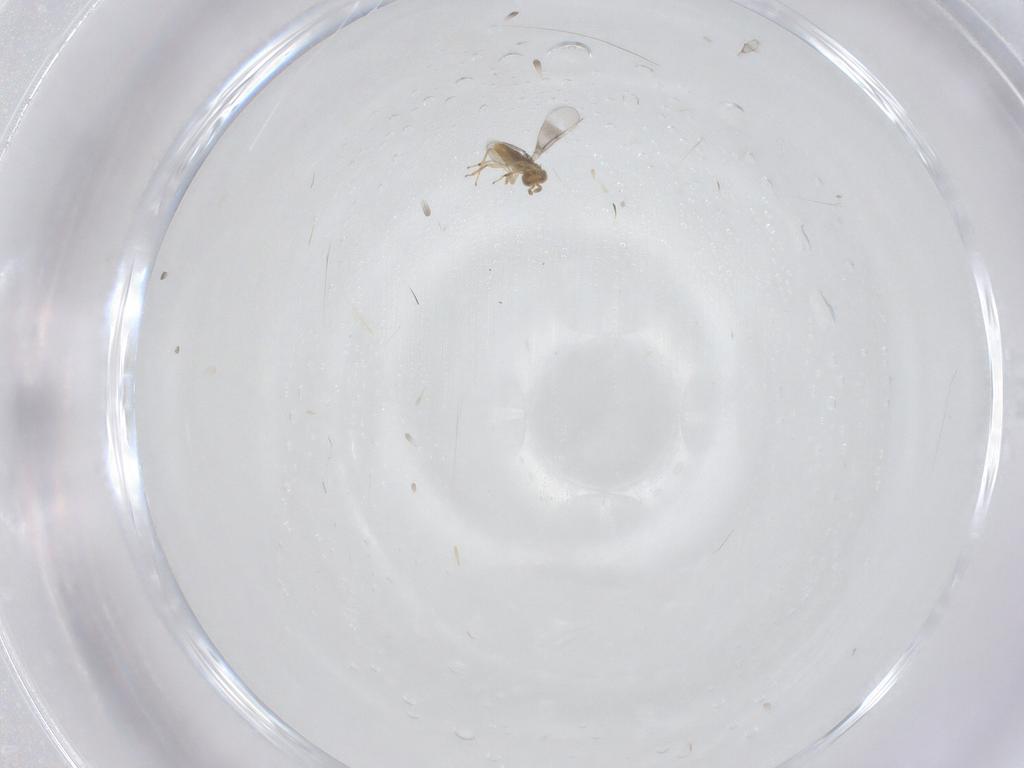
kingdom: Animalia
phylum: Arthropoda
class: Insecta
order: Hymenoptera
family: Aphelinidae
